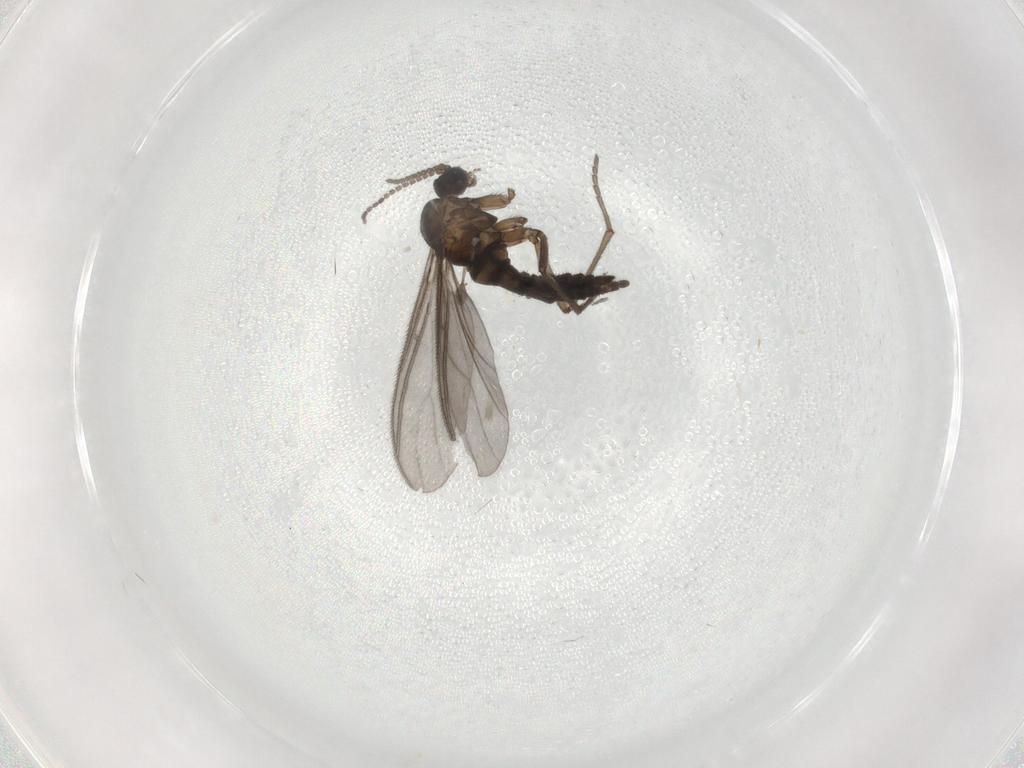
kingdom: Animalia
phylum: Arthropoda
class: Insecta
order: Diptera
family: Sciaridae
